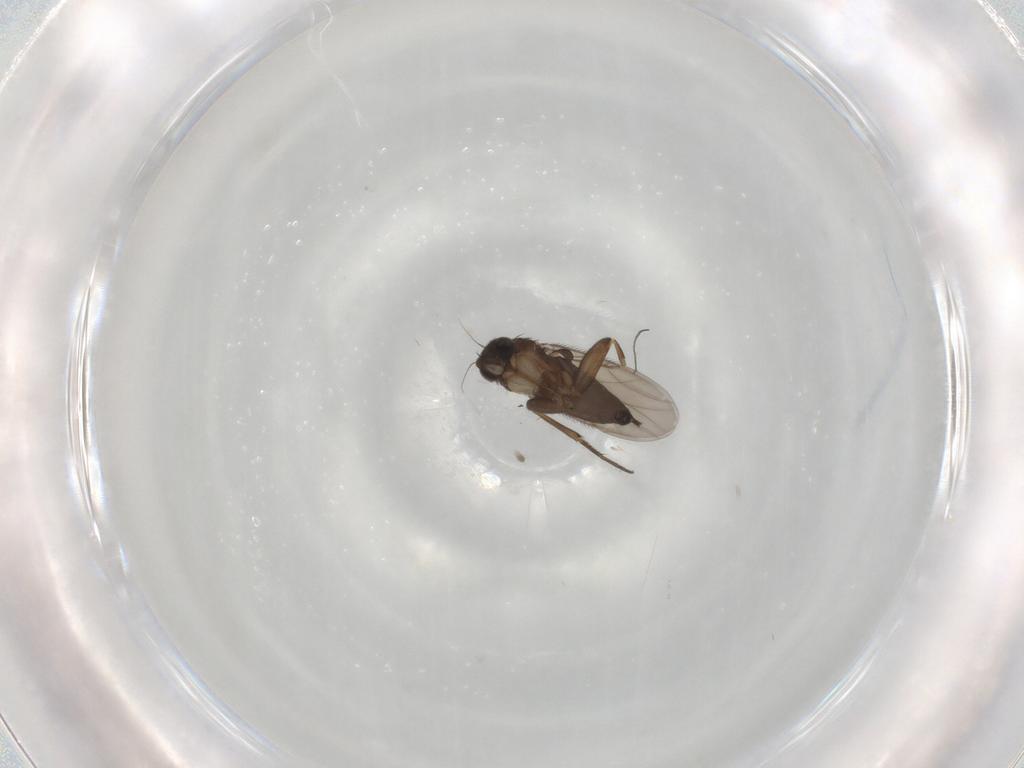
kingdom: Animalia
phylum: Arthropoda
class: Insecta
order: Diptera
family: Phoridae
